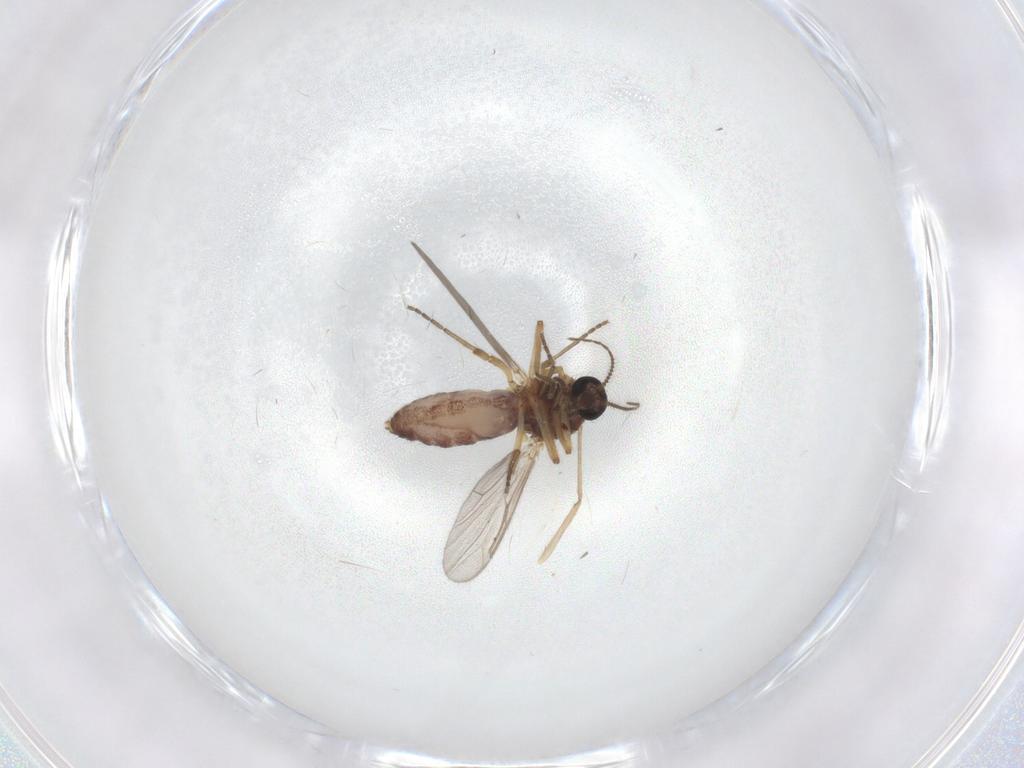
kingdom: Animalia
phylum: Arthropoda
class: Insecta
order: Diptera
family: Ceratopogonidae
